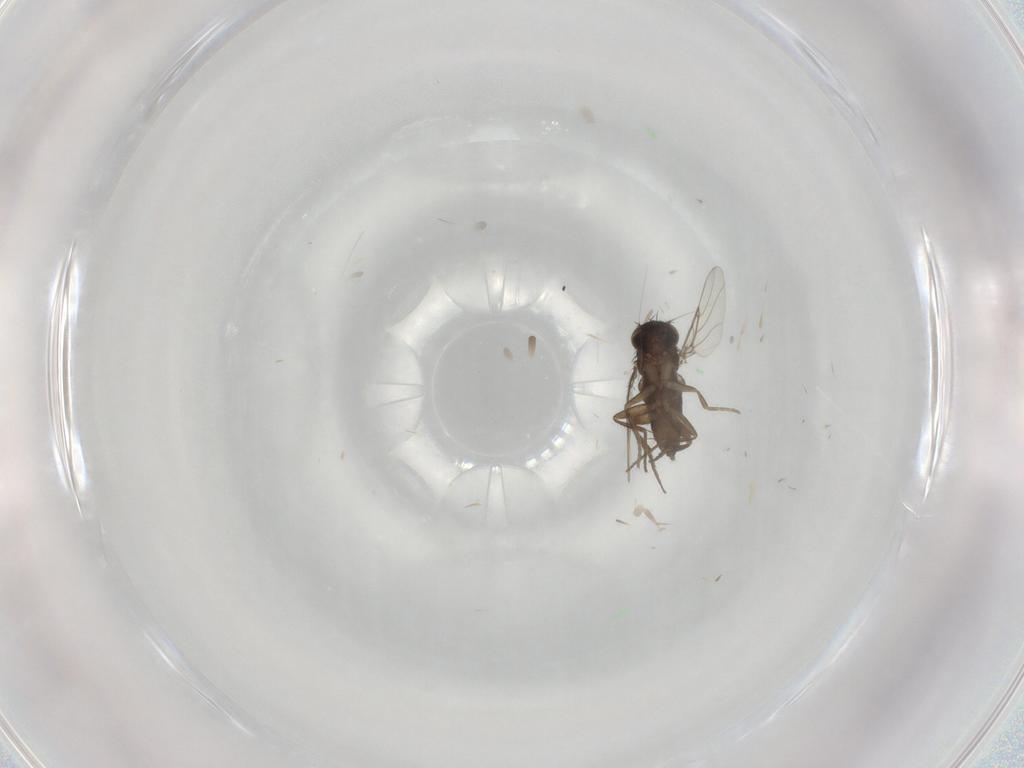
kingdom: Animalia
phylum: Arthropoda
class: Insecta
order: Diptera
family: Phoridae
